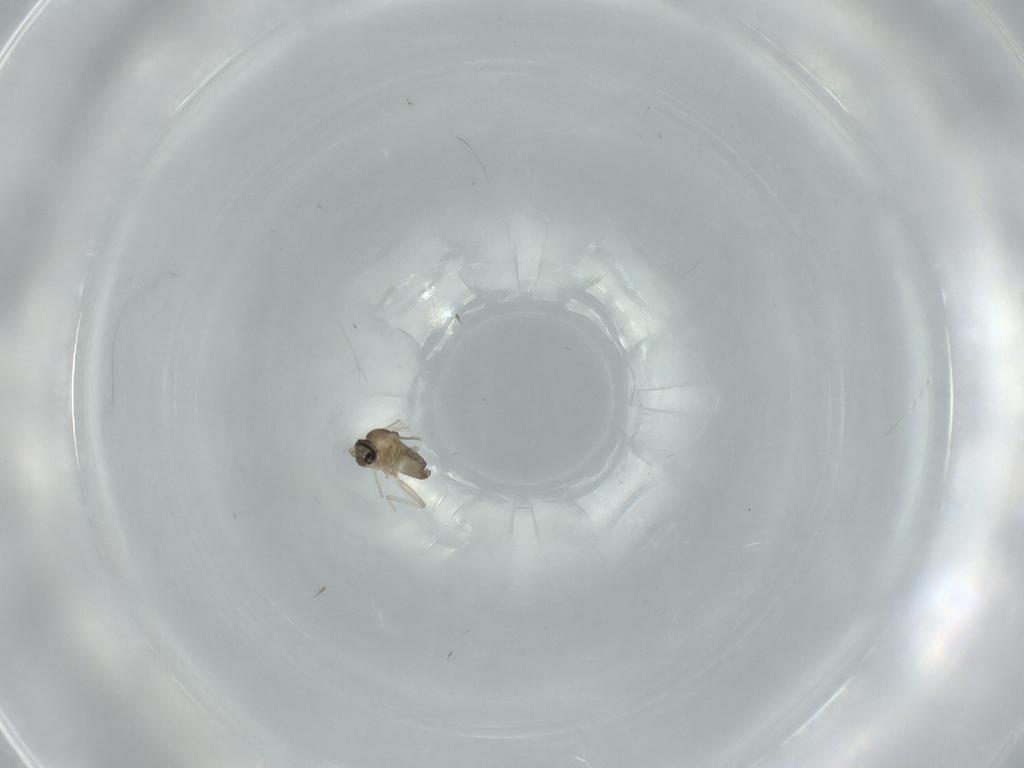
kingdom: Animalia
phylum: Arthropoda
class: Insecta
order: Diptera
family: Cecidomyiidae
